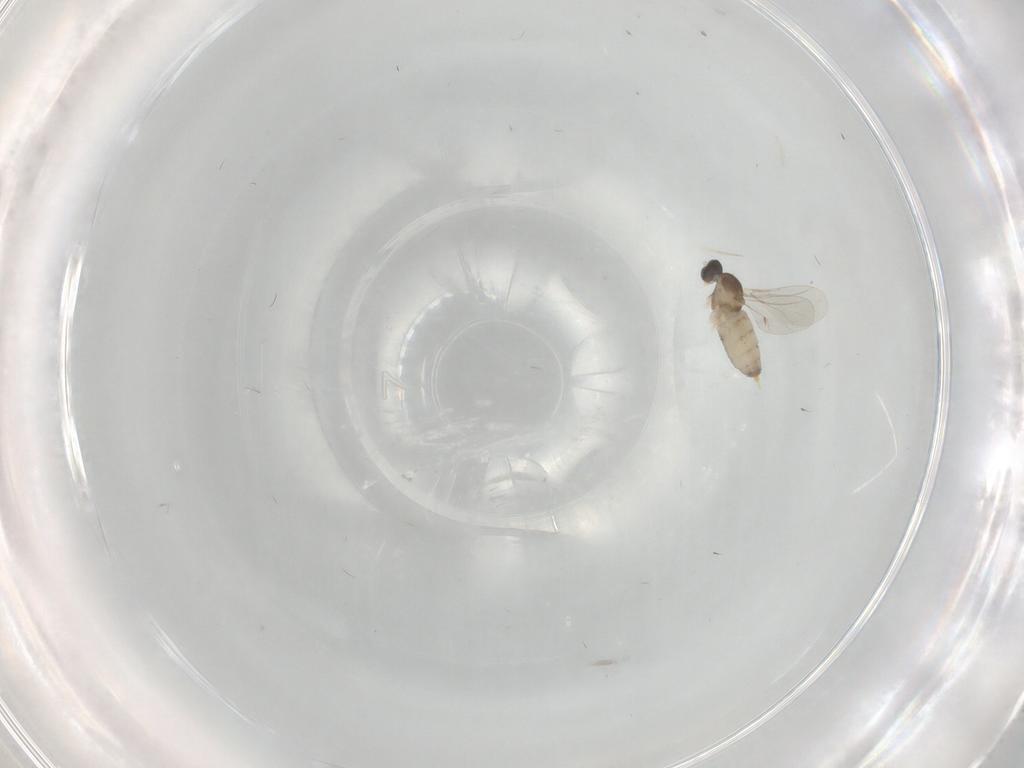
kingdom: Animalia
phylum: Arthropoda
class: Insecta
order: Diptera
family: Cecidomyiidae
